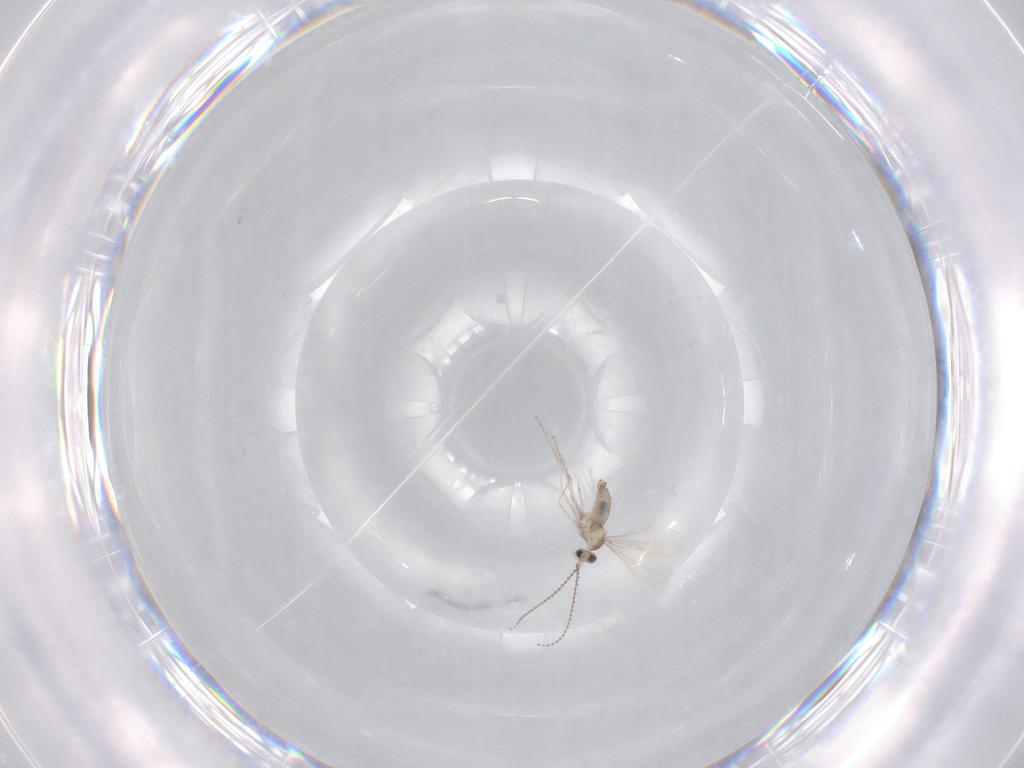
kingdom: Animalia
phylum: Arthropoda
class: Insecta
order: Diptera
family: Cecidomyiidae
